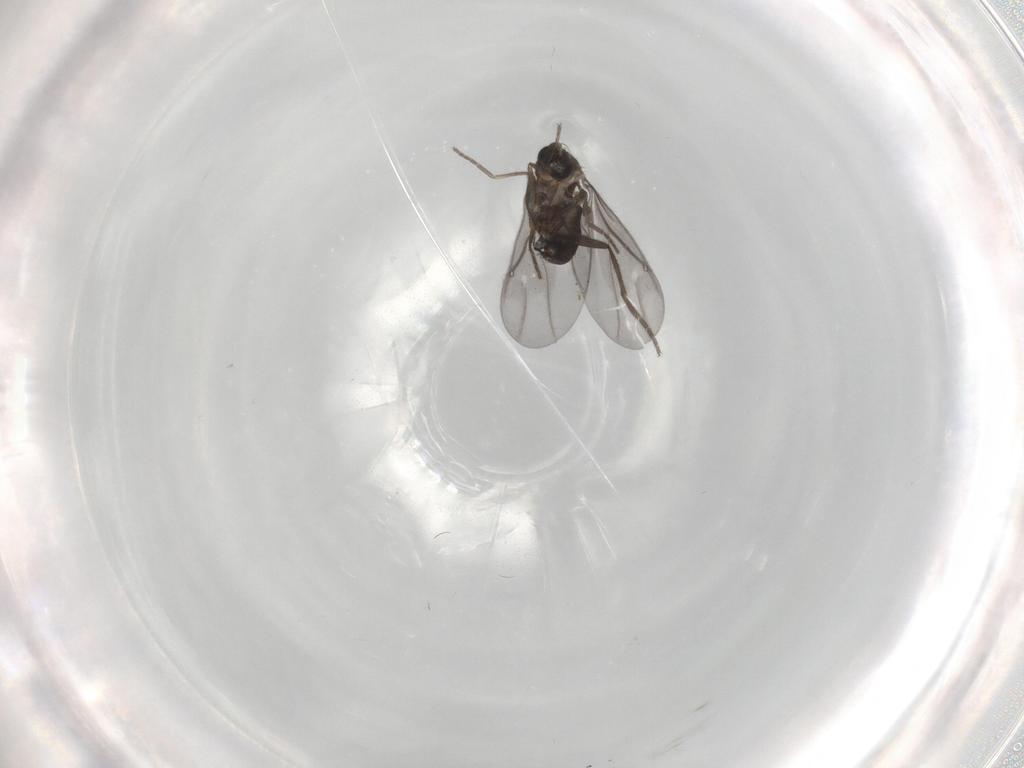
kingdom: Animalia
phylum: Arthropoda
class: Insecta
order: Diptera
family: Phoridae
